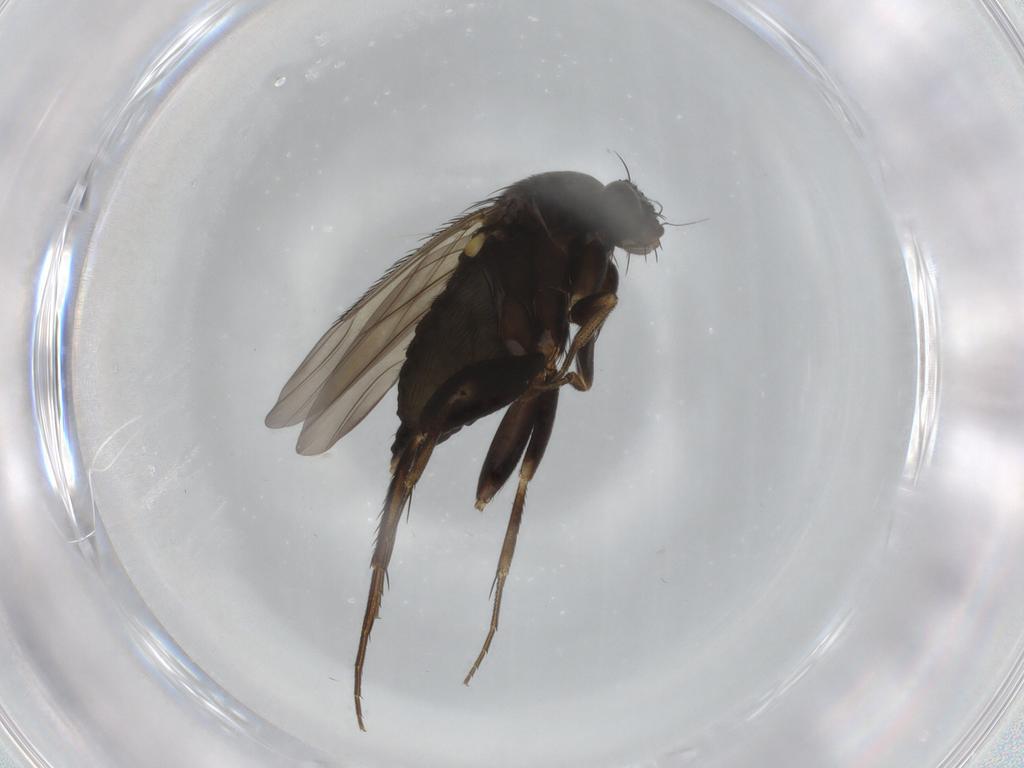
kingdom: Animalia
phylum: Arthropoda
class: Insecta
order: Diptera
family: Phoridae
